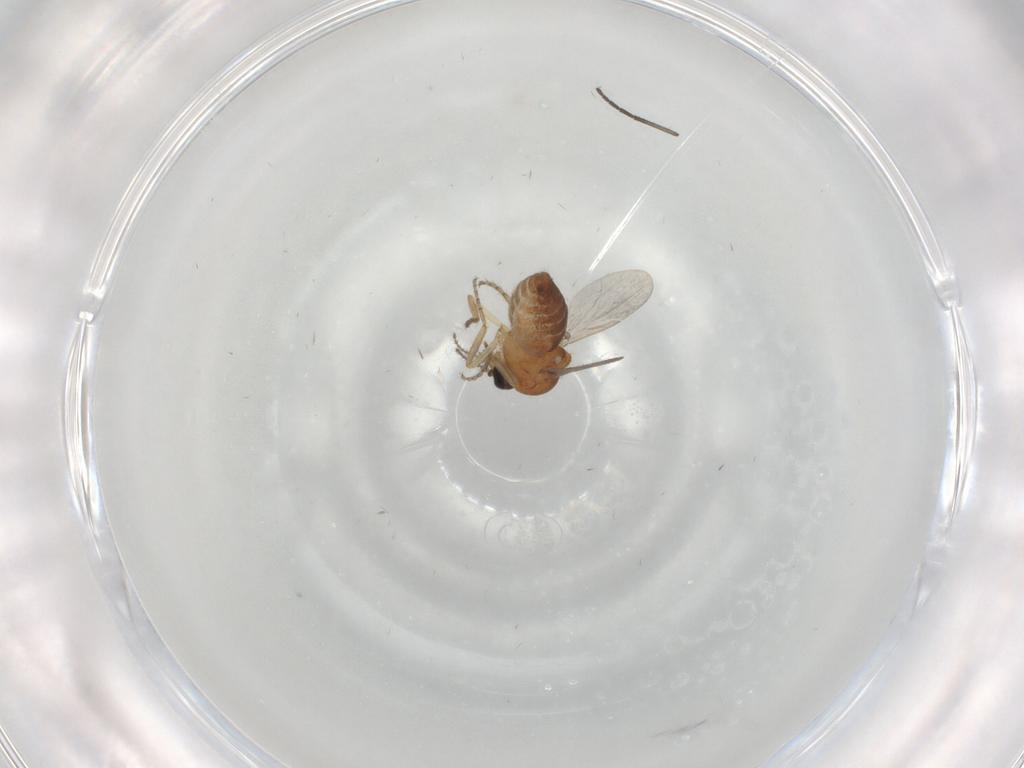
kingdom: Animalia
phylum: Arthropoda
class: Insecta
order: Diptera
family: Ceratopogonidae
